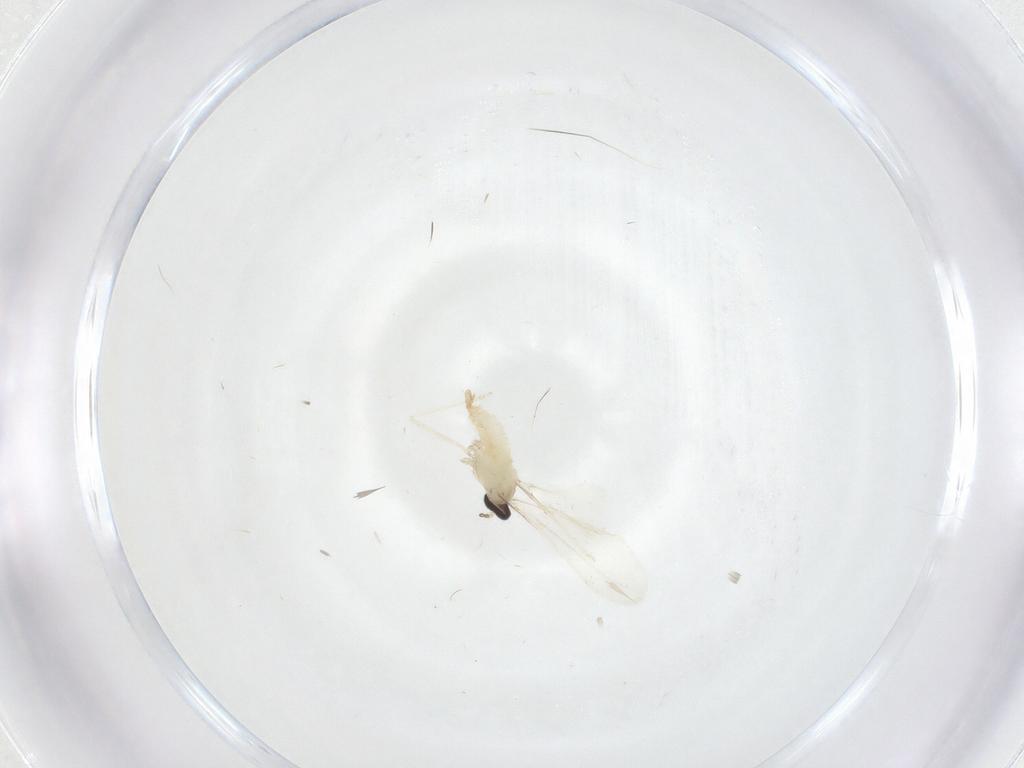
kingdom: Animalia
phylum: Arthropoda
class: Insecta
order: Diptera
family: Cecidomyiidae
